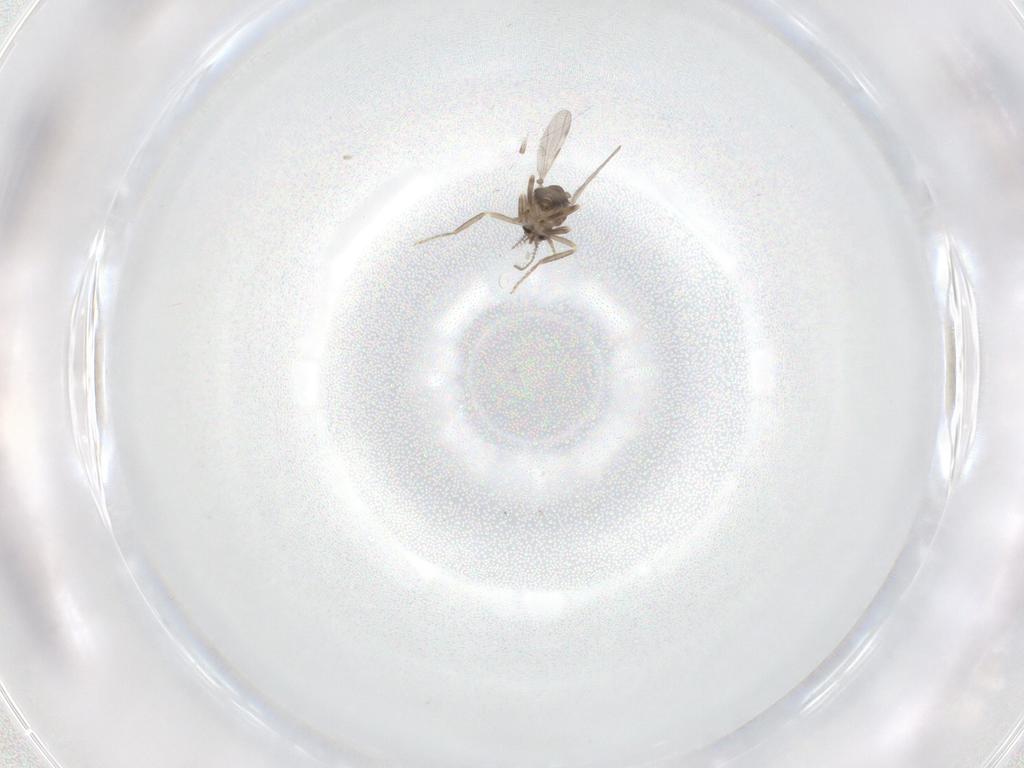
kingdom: Animalia
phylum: Arthropoda
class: Insecta
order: Diptera
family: Ceratopogonidae
